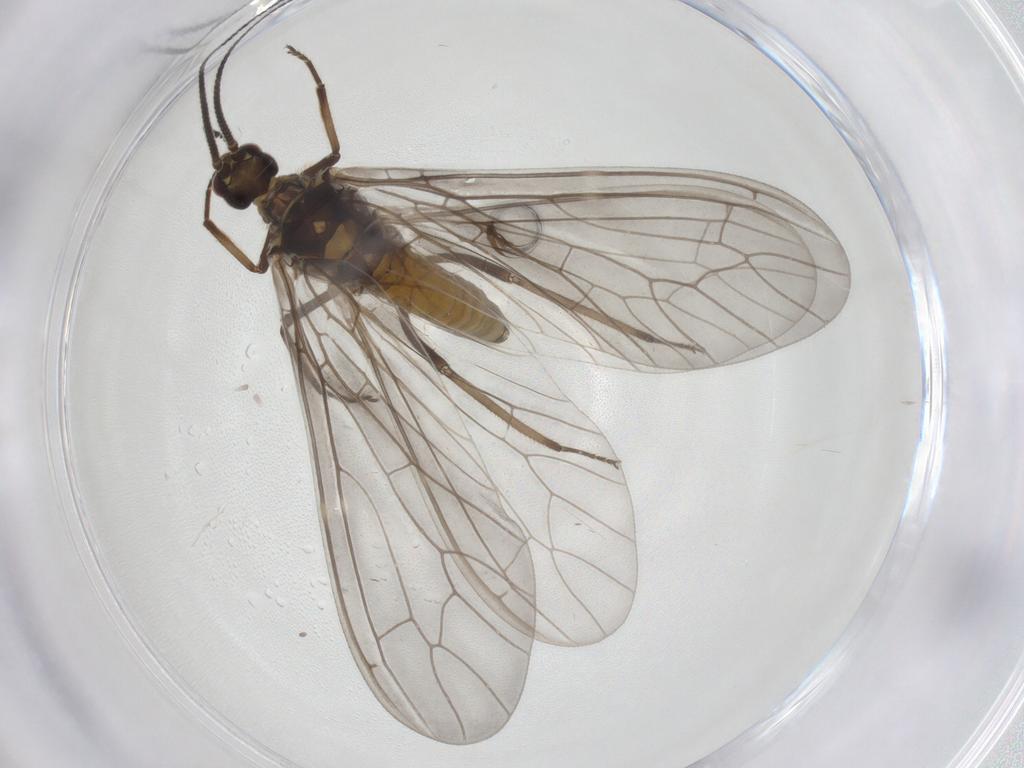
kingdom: Animalia
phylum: Arthropoda
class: Insecta
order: Neuroptera
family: Coniopterygidae
